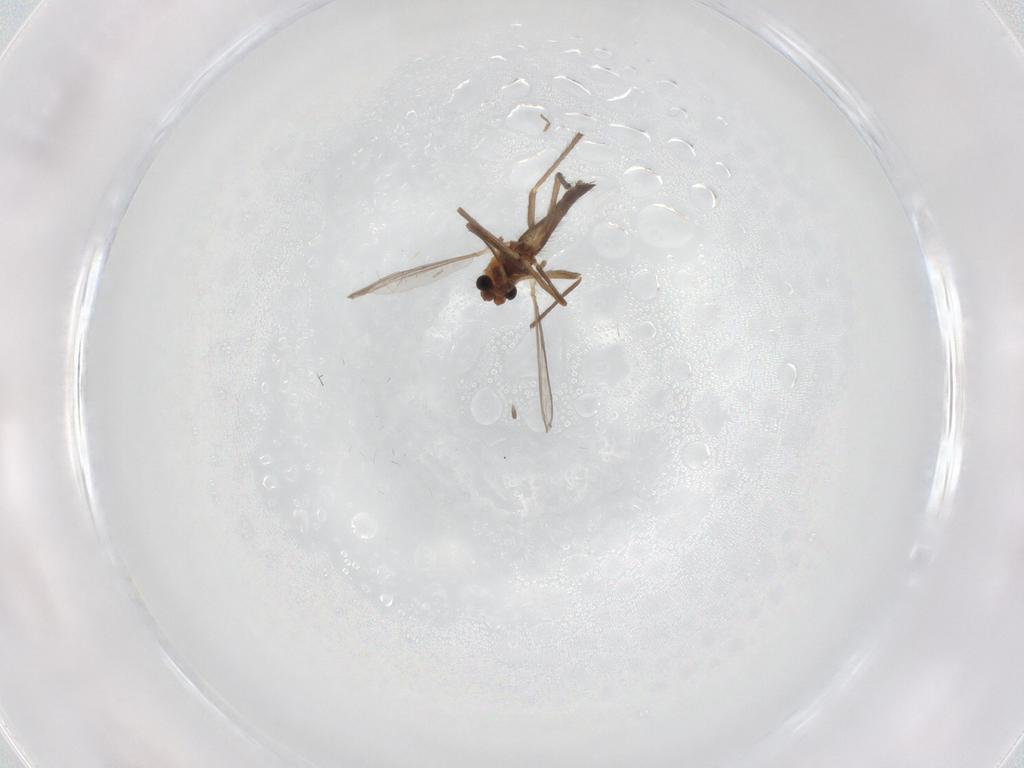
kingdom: Animalia
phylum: Arthropoda
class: Insecta
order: Diptera
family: Chironomidae
